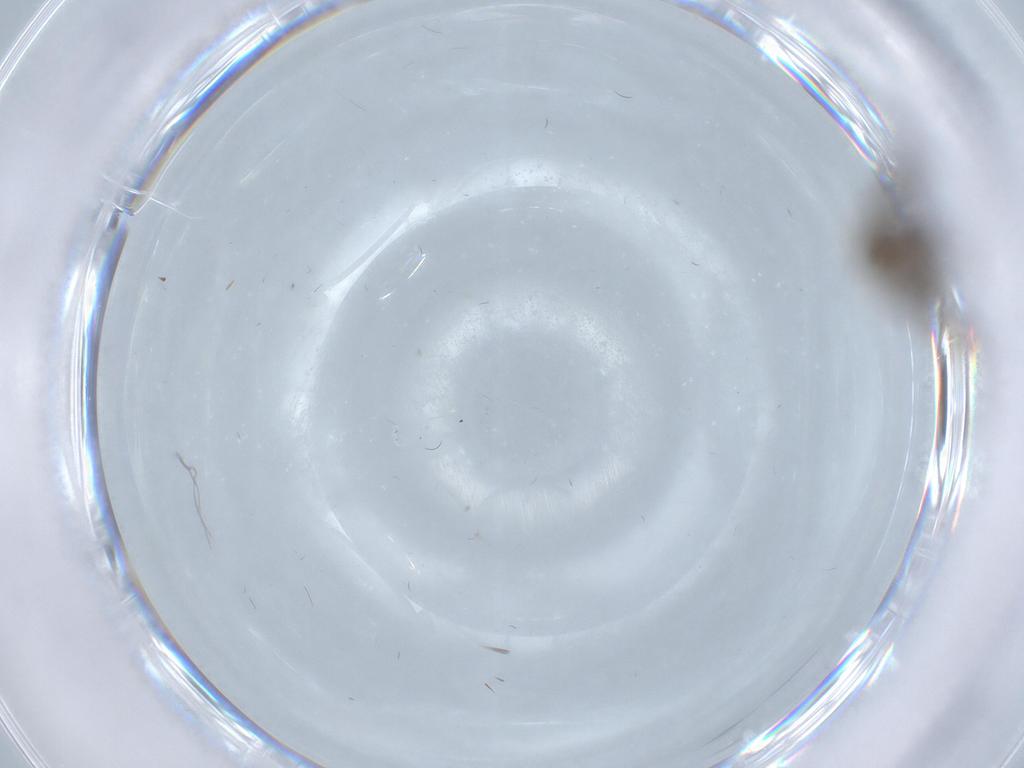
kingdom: Animalia
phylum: Arthropoda
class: Insecta
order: Diptera
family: Limoniidae
